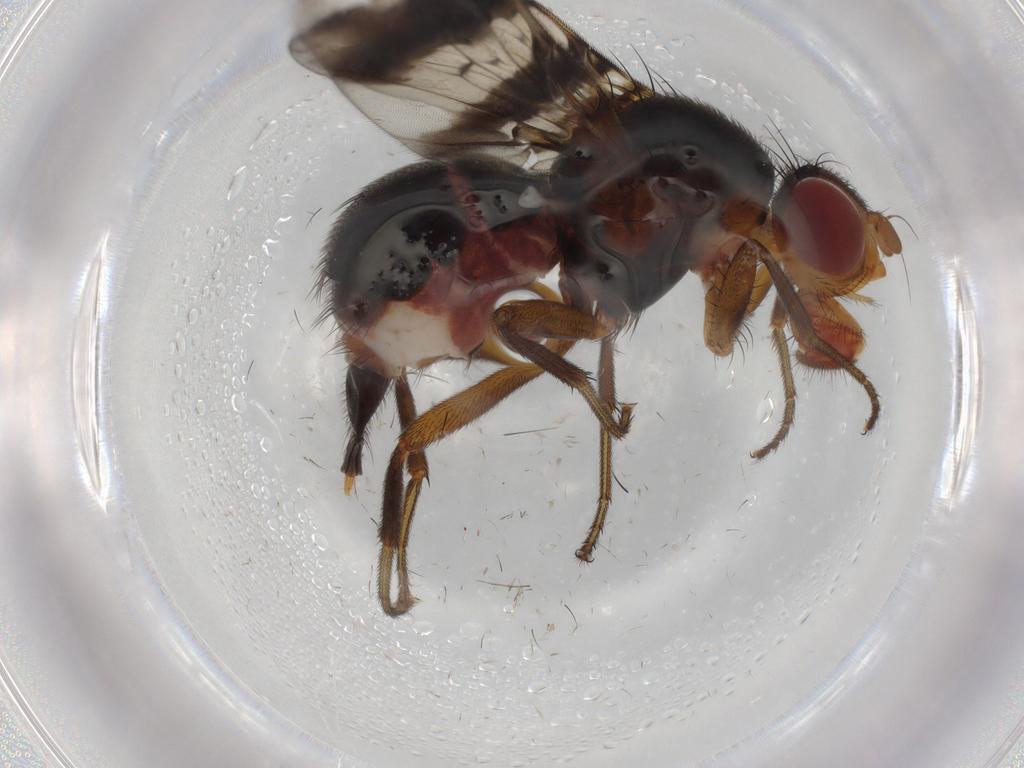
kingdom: Animalia
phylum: Arthropoda
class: Insecta
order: Diptera
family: Richardiidae
